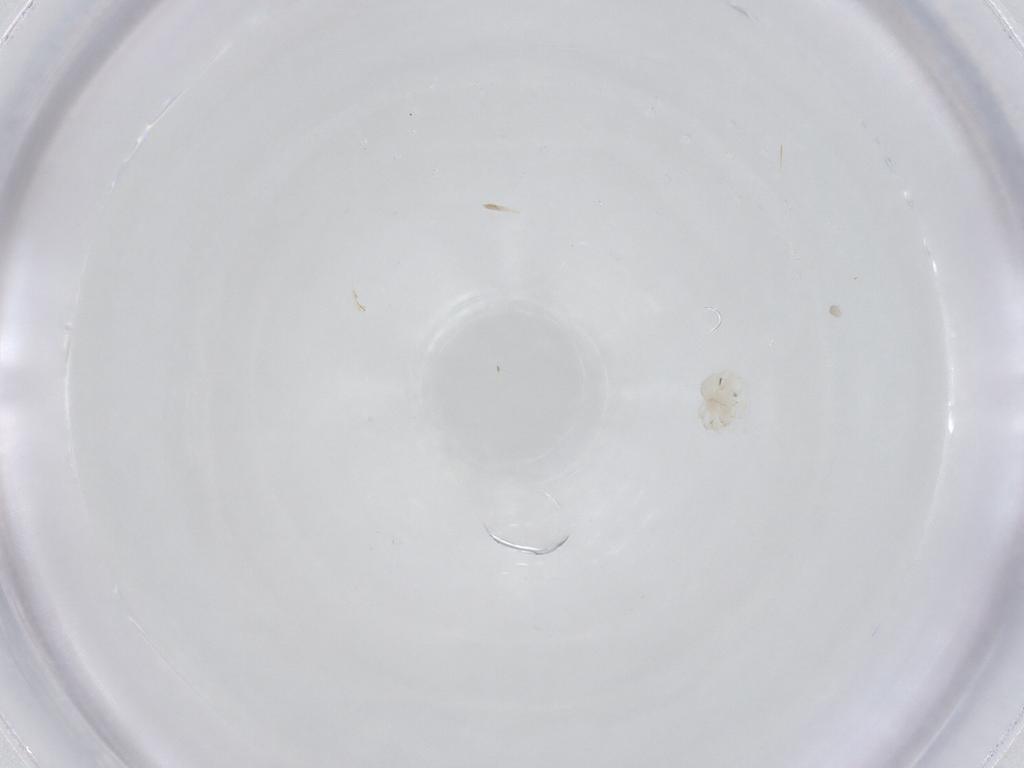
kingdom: Animalia
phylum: Arthropoda
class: Arachnida
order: Trombidiformes
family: Anystidae
